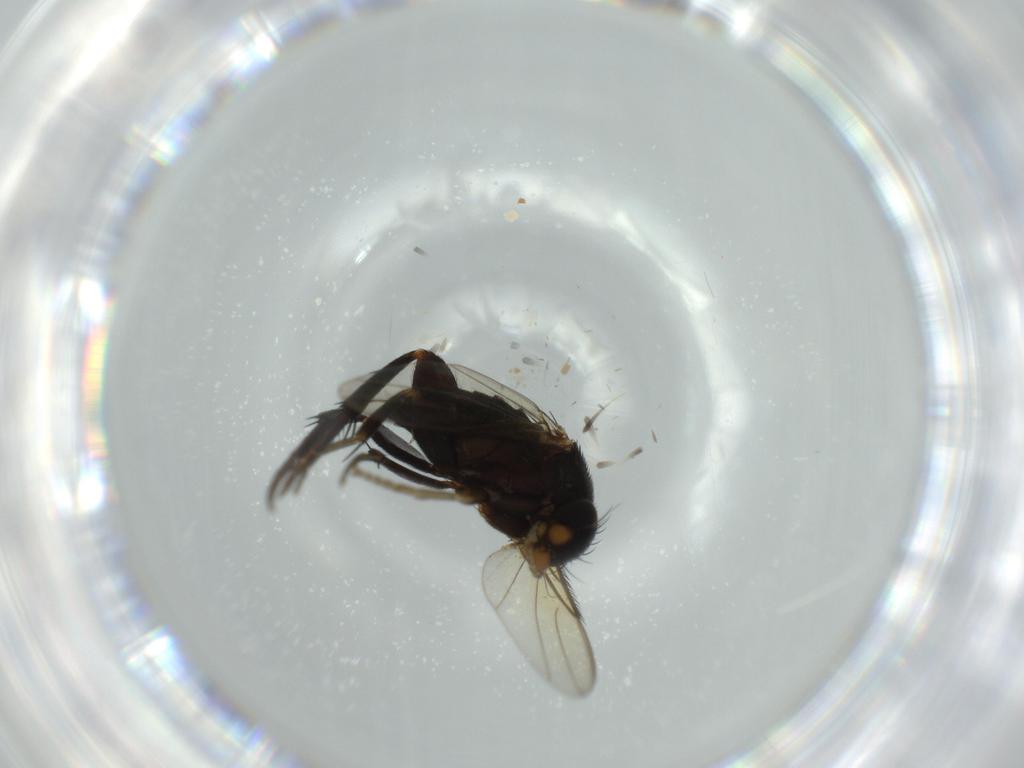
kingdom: Animalia
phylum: Arthropoda
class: Insecta
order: Diptera
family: Phoridae
